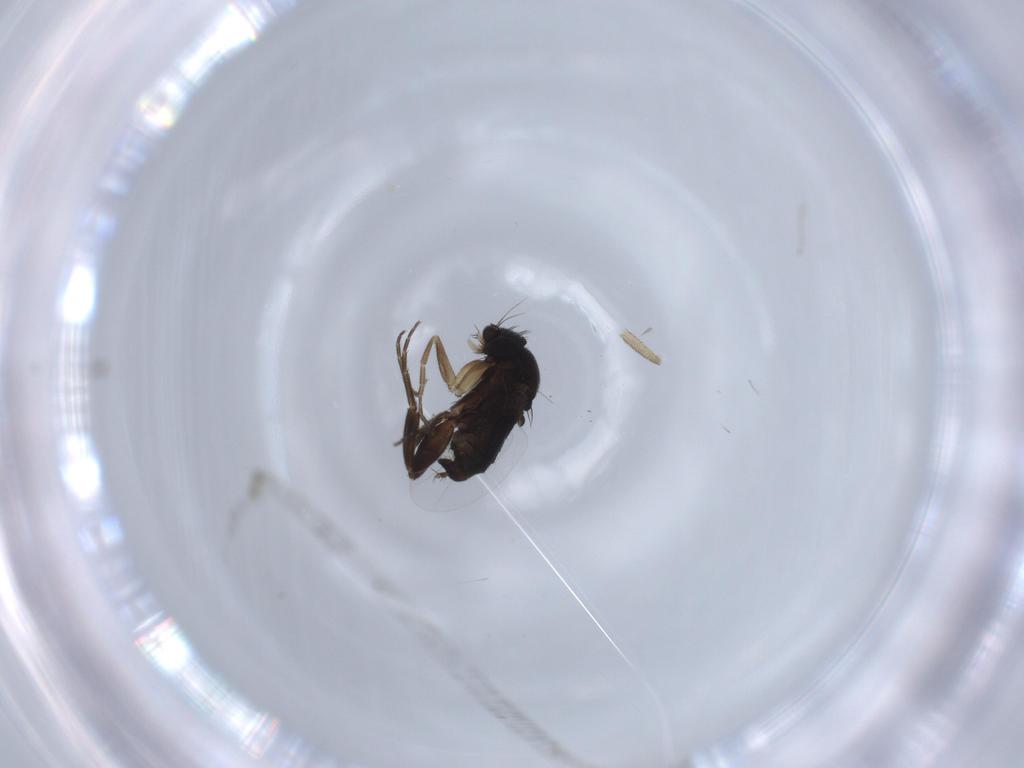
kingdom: Animalia
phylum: Arthropoda
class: Insecta
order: Diptera
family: Phoridae
